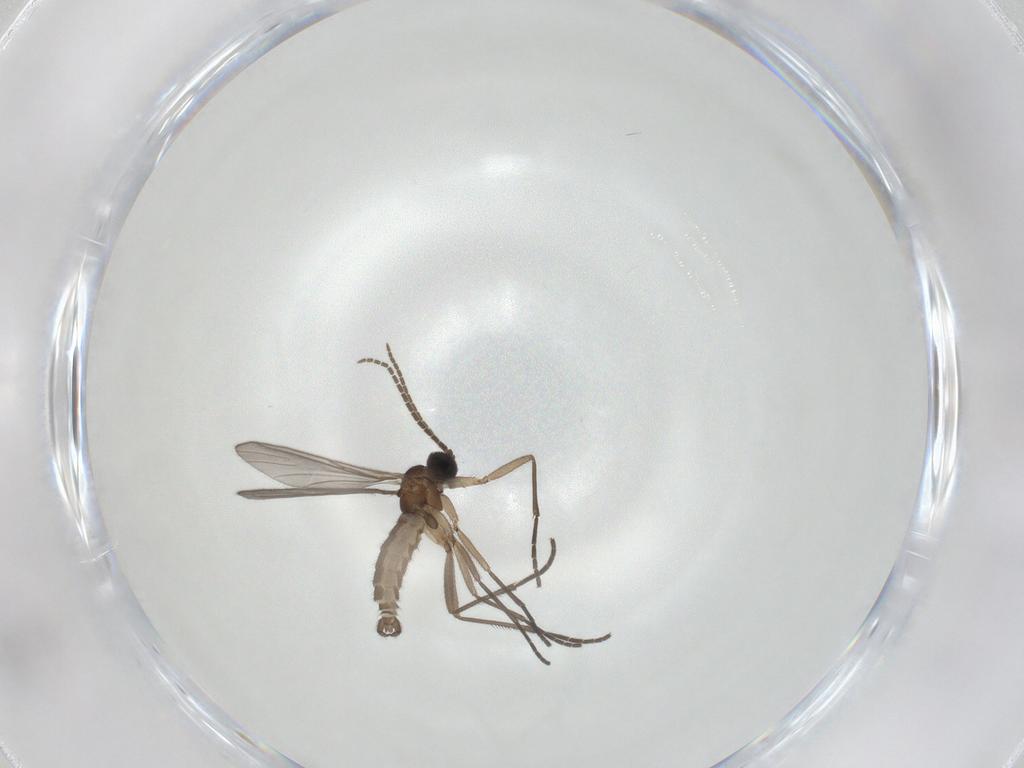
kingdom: Animalia
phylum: Arthropoda
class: Insecta
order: Diptera
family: Sciaridae
